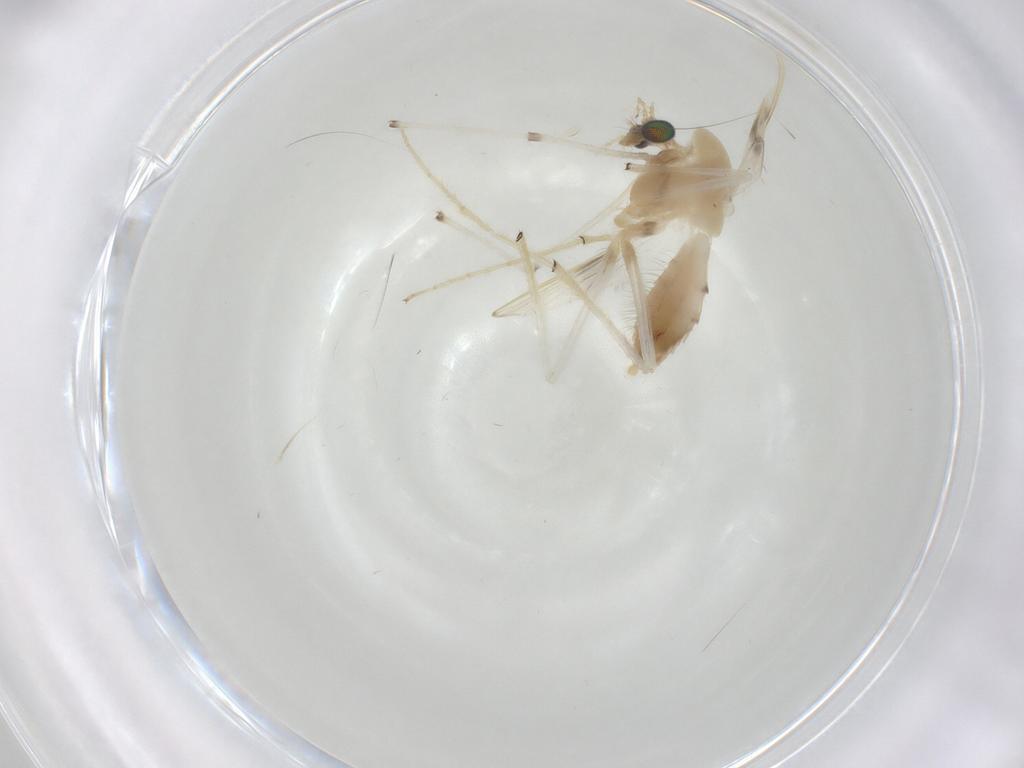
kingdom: Animalia
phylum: Arthropoda
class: Insecta
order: Diptera
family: Chironomidae
